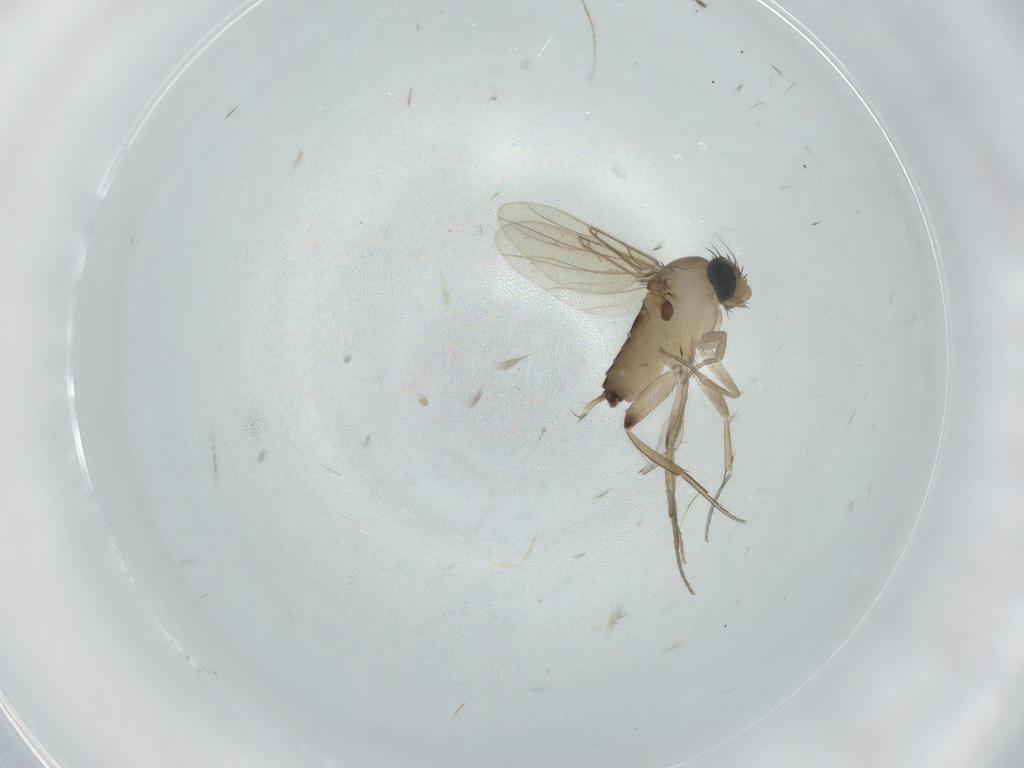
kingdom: Animalia
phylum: Arthropoda
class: Insecta
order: Diptera
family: Phoridae
